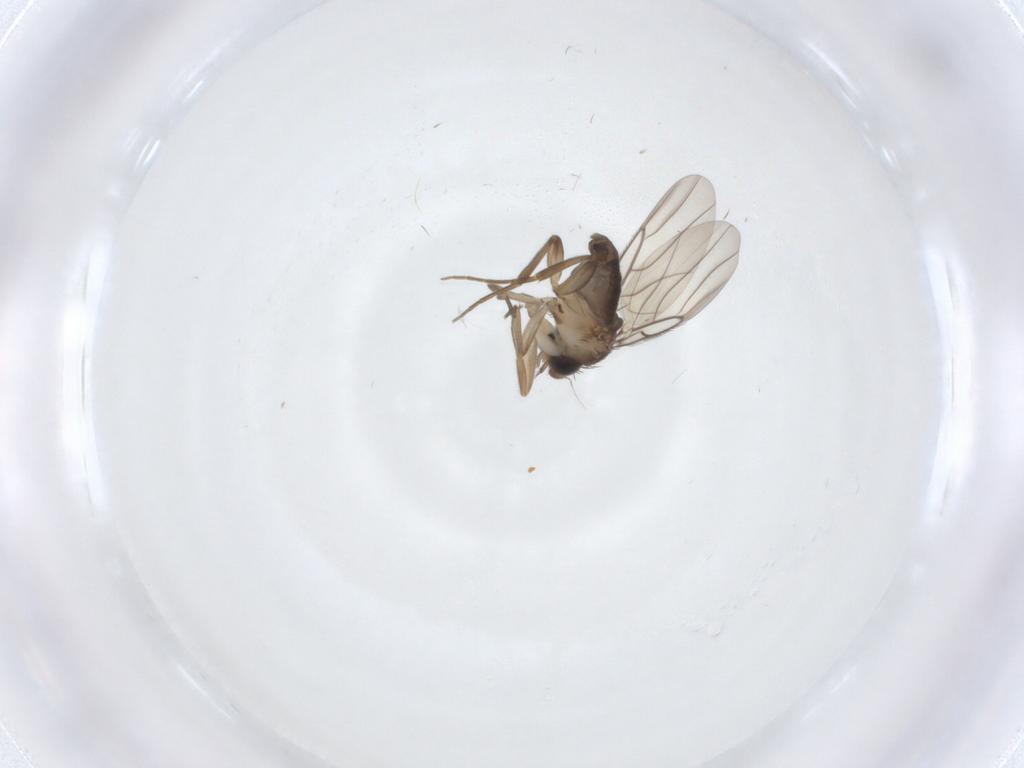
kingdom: Animalia
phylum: Arthropoda
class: Insecta
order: Diptera
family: Phoridae
